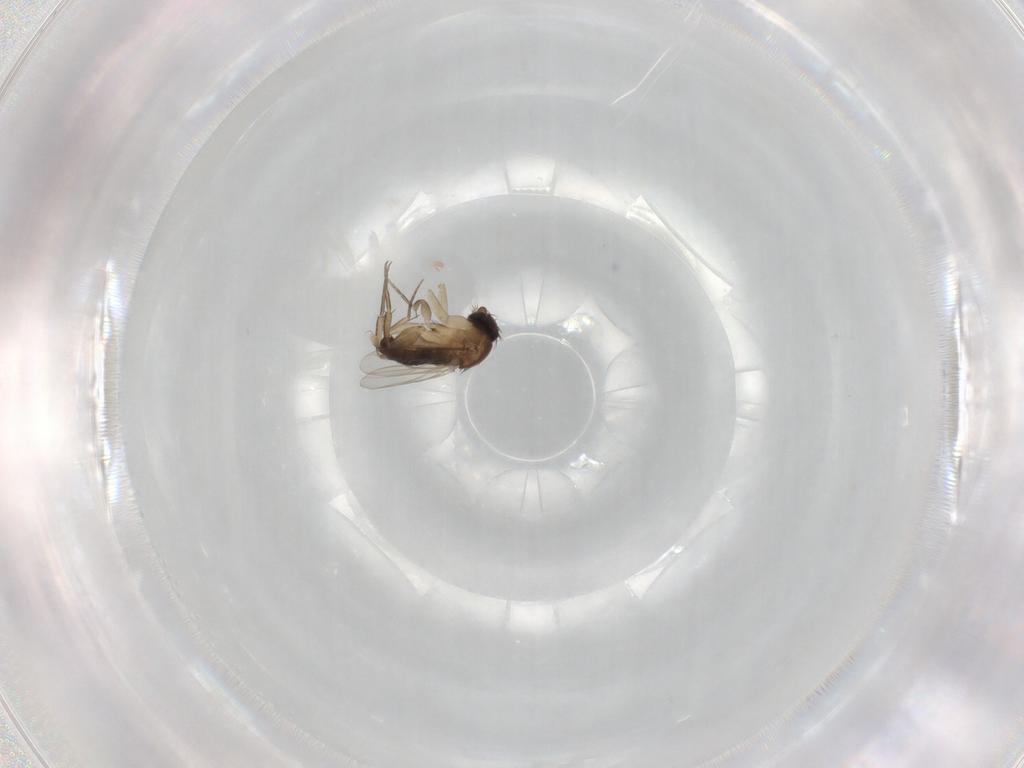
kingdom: Animalia
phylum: Arthropoda
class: Insecta
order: Diptera
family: Phoridae
